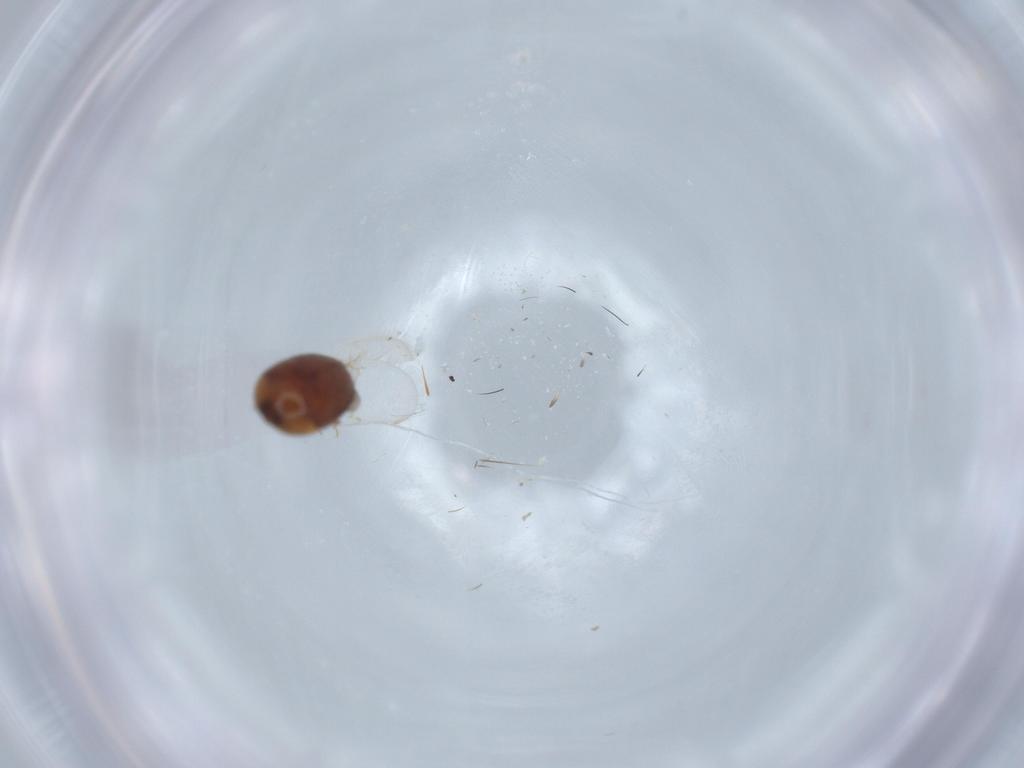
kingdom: Animalia
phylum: Arthropoda
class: Insecta
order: Coleoptera
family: Corylophidae
